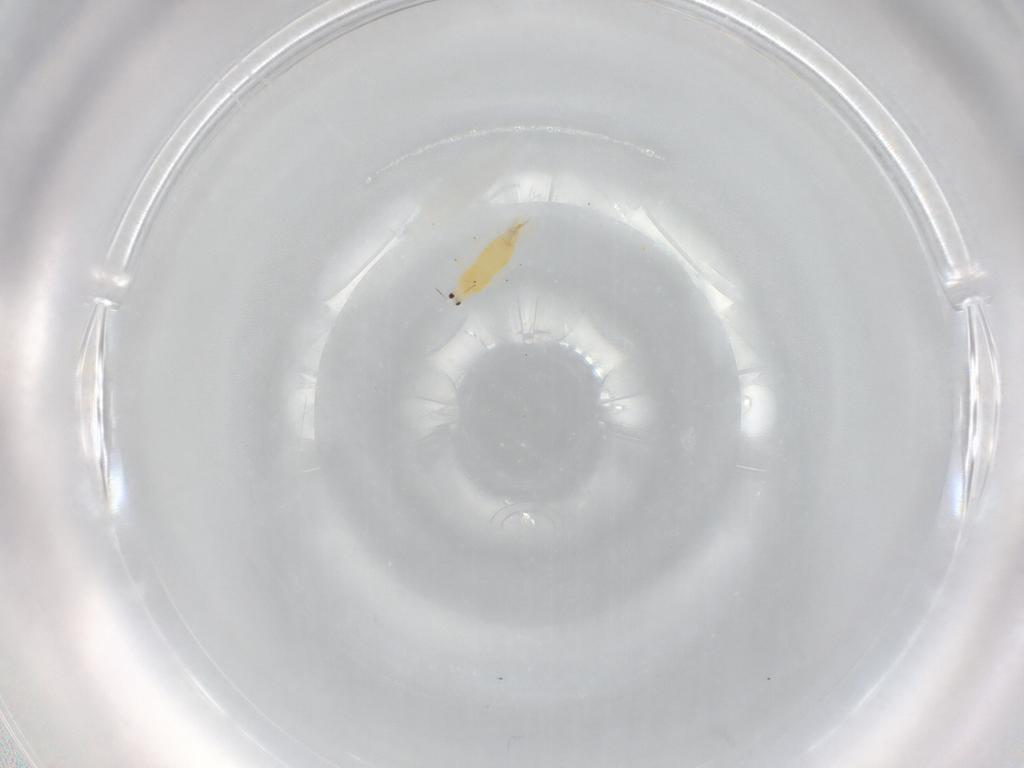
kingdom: Animalia
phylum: Arthropoda
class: Insecta
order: Thysanoptera
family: Thripidae
